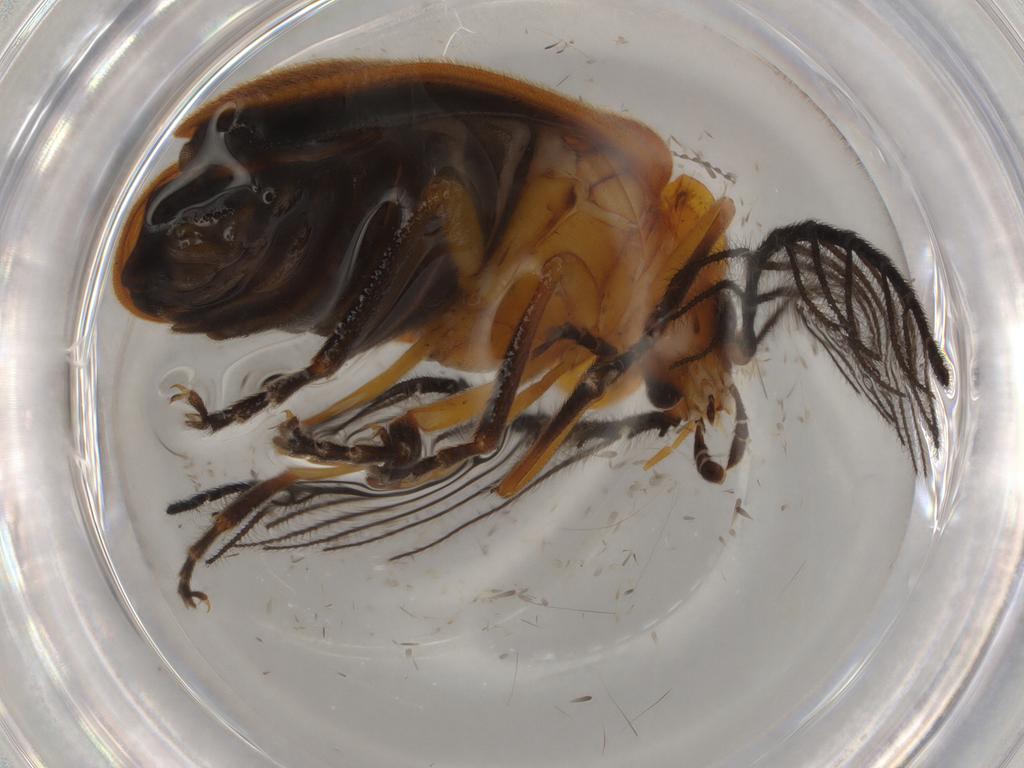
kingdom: Animalia
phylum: Arthropoda
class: Insecta
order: Coleoptera
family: Ptilodactylidae
